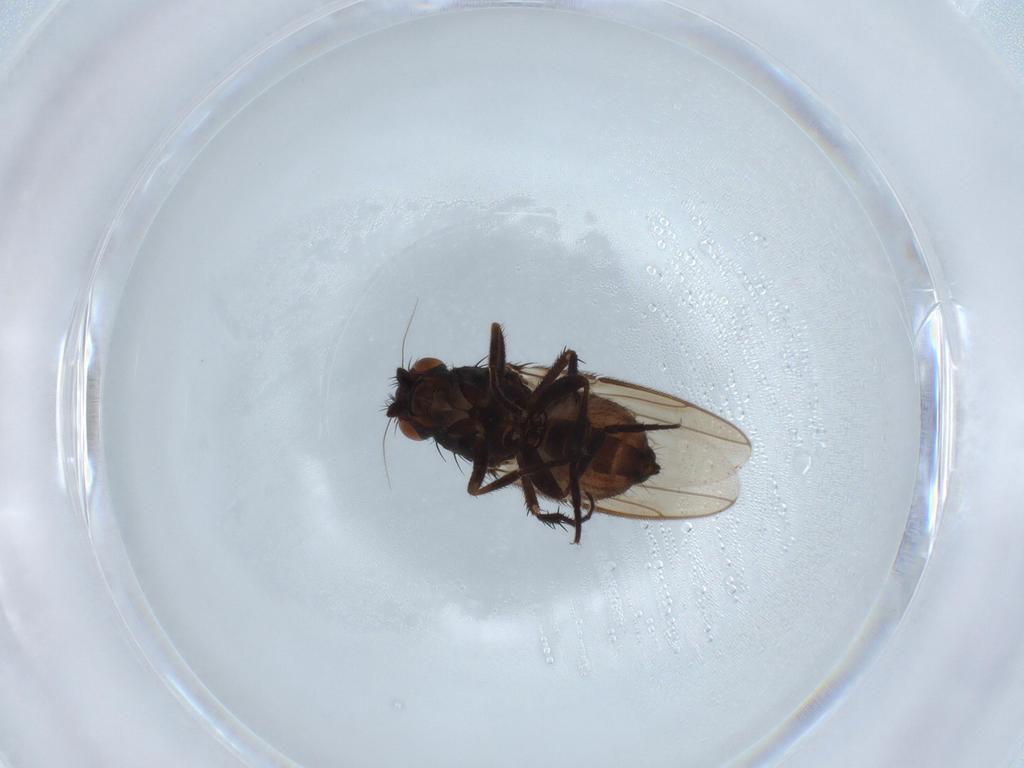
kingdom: Animalia
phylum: Arthropoda
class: Insecta
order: Diptera
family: Sphaeroceridae
